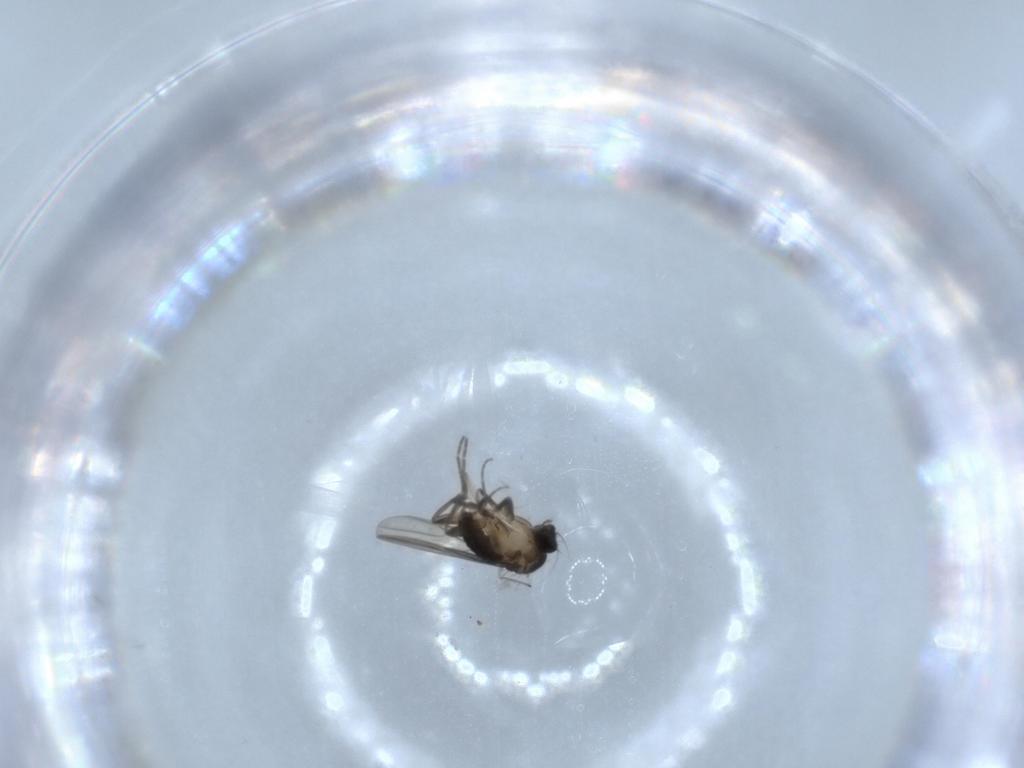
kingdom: Animalia
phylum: Arthropoda
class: Insecta
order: Diptera
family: Phoridae
